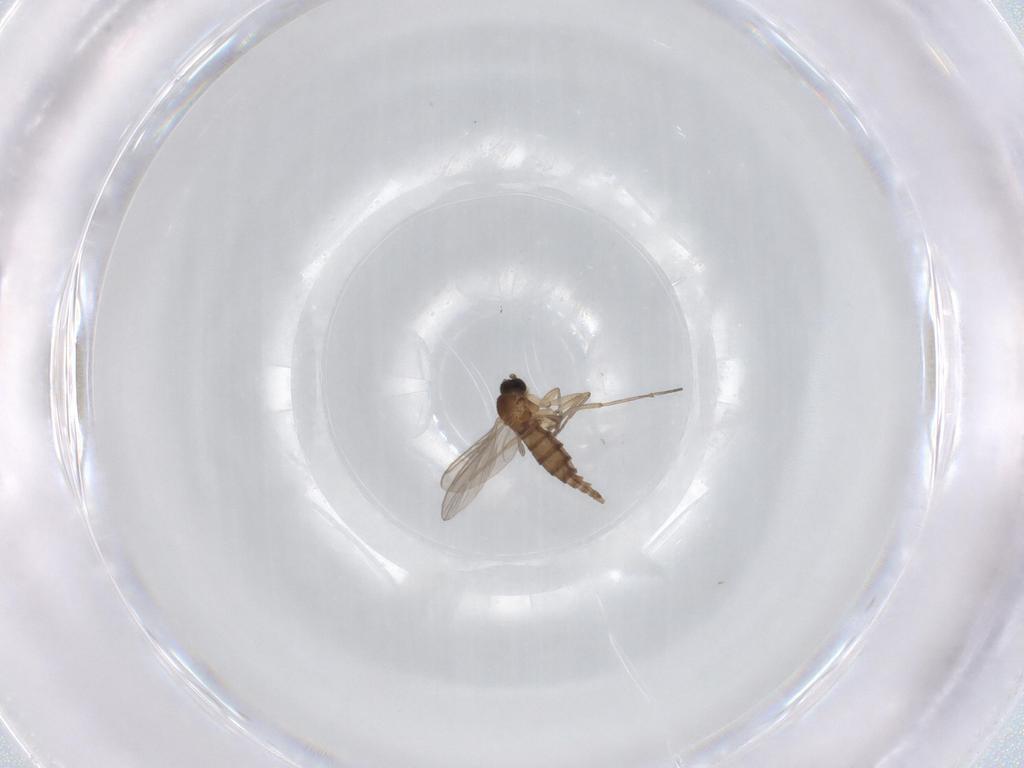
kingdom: Animalia
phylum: Arthropoda
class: Insecta
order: Diptera
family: Sciaridae
